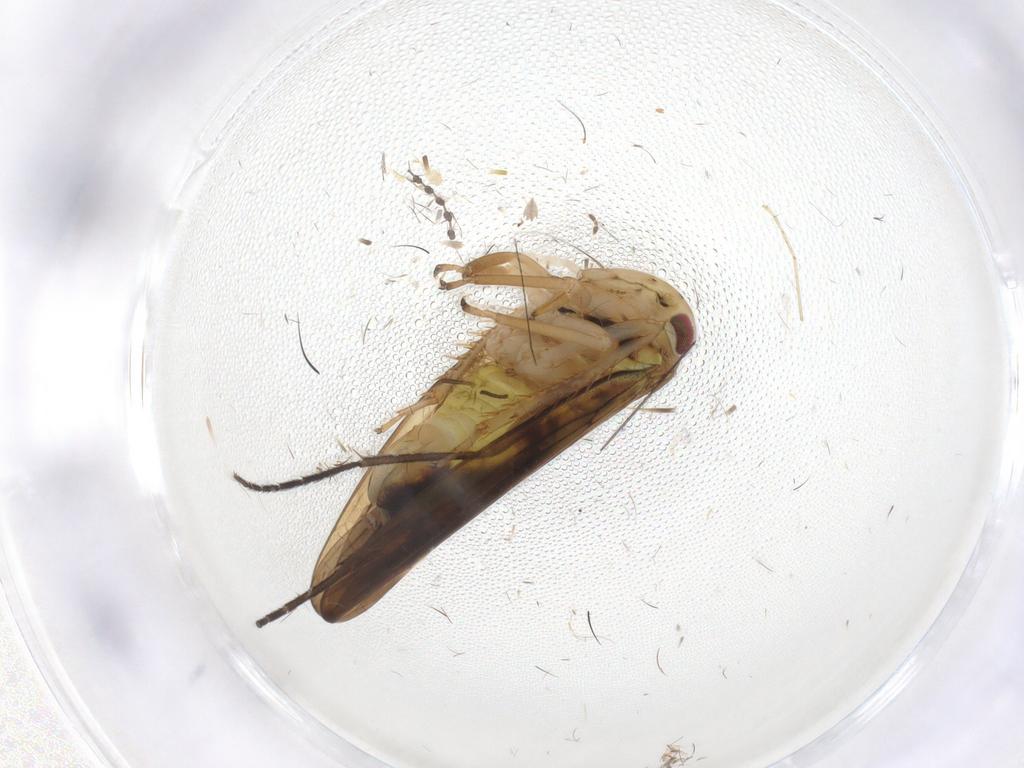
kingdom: Animalia
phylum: Arthropoda
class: Insecta
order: Hemiptera
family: Cicadellidae
